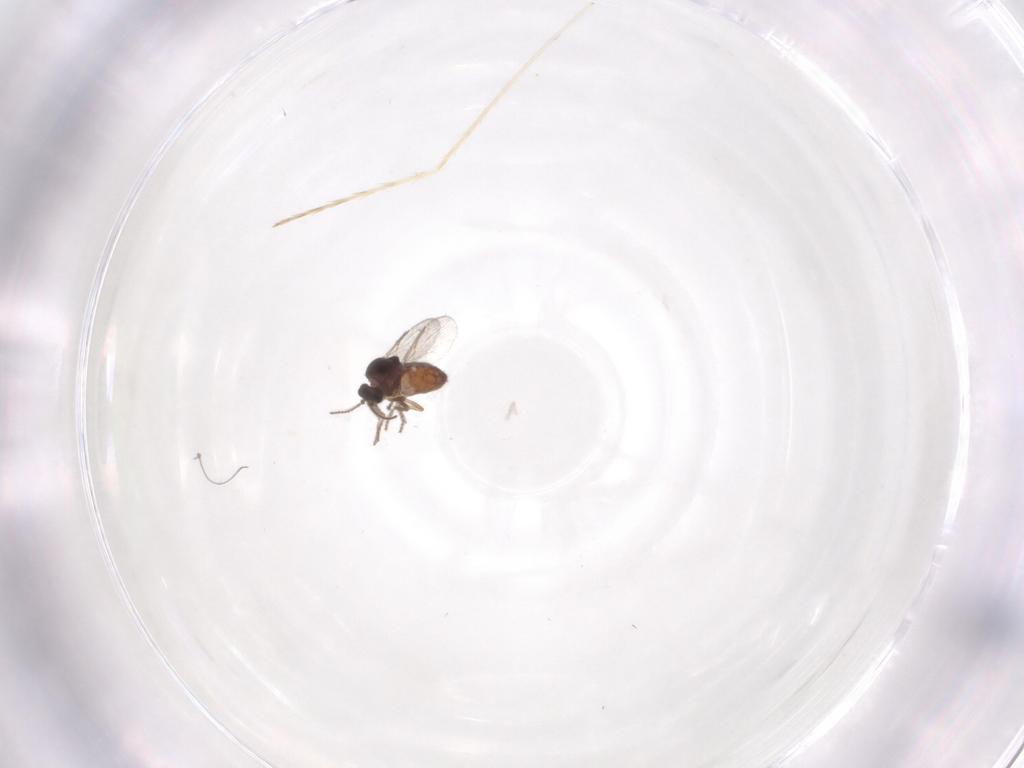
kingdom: Animalia
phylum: Arthropoda
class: Insecta
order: Diptera
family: Ceratopogonidae
